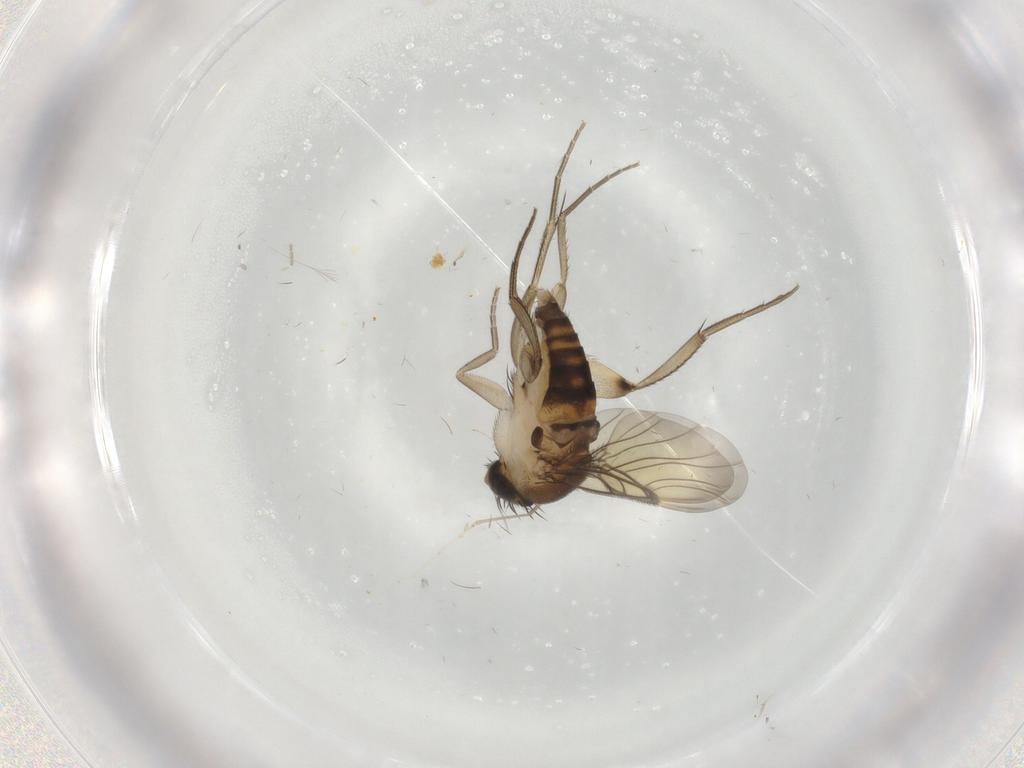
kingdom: Animalia
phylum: Arthropoda
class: Insecta
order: Diptera
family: Phoridae
